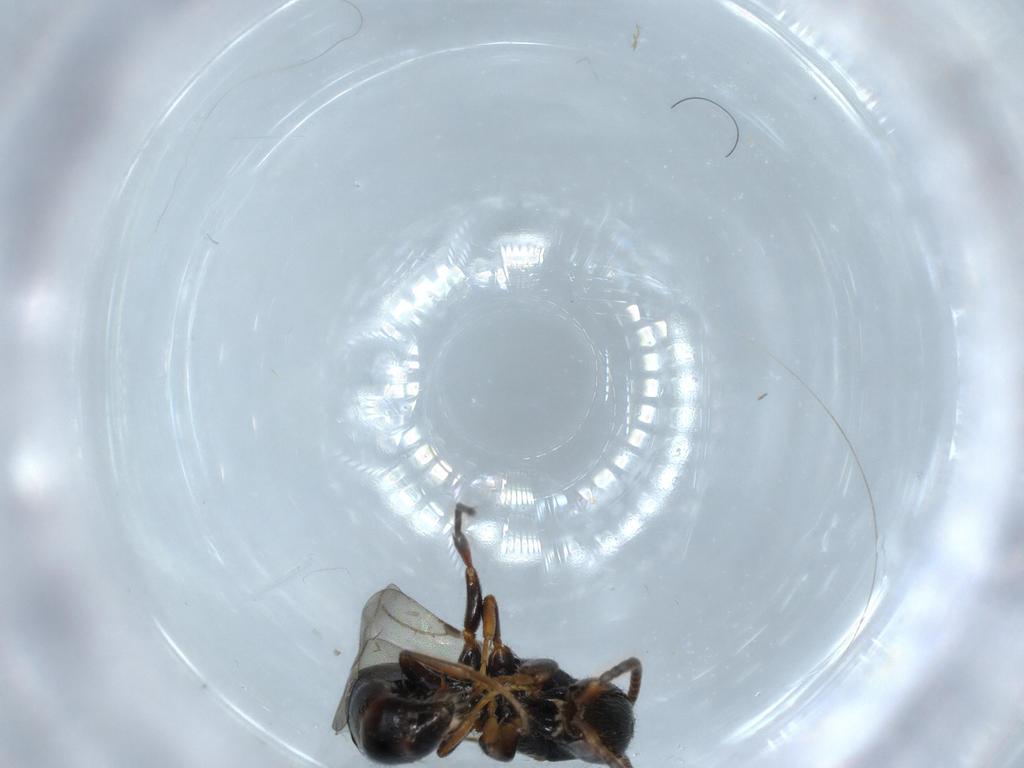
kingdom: Animalia
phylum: Arthropoda
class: Insecta
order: Hymenoptera
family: Bethylidae
